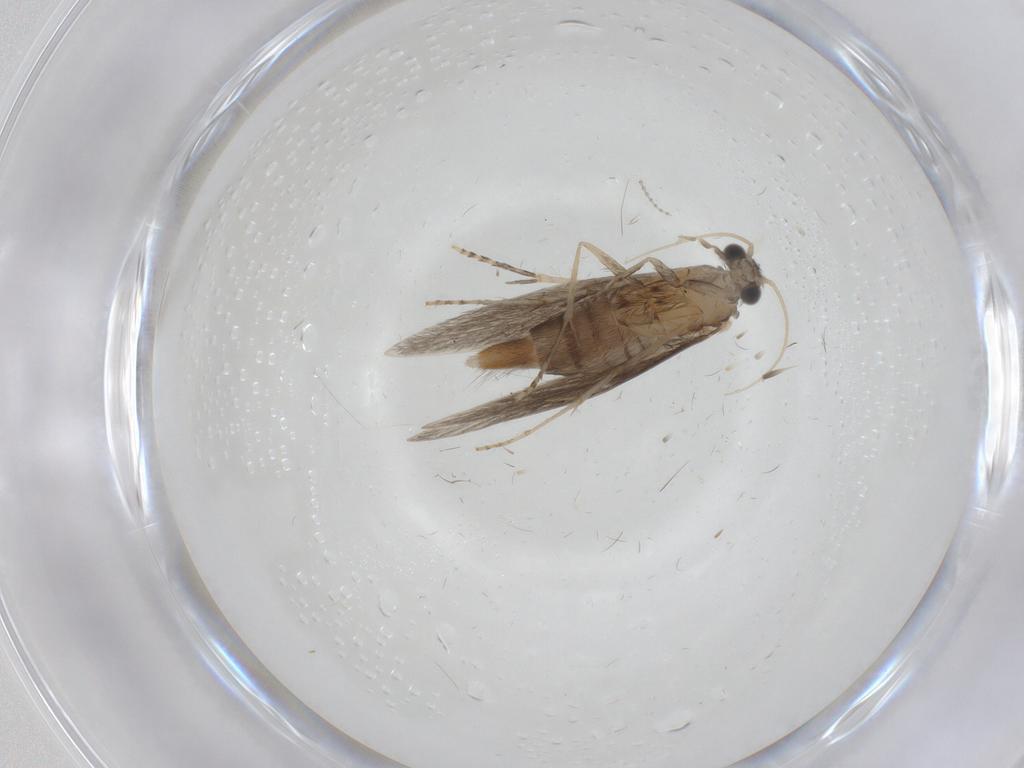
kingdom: Animalia
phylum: Arthropoda
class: Insecta
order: Trichoptera
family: Hydroptilidae
